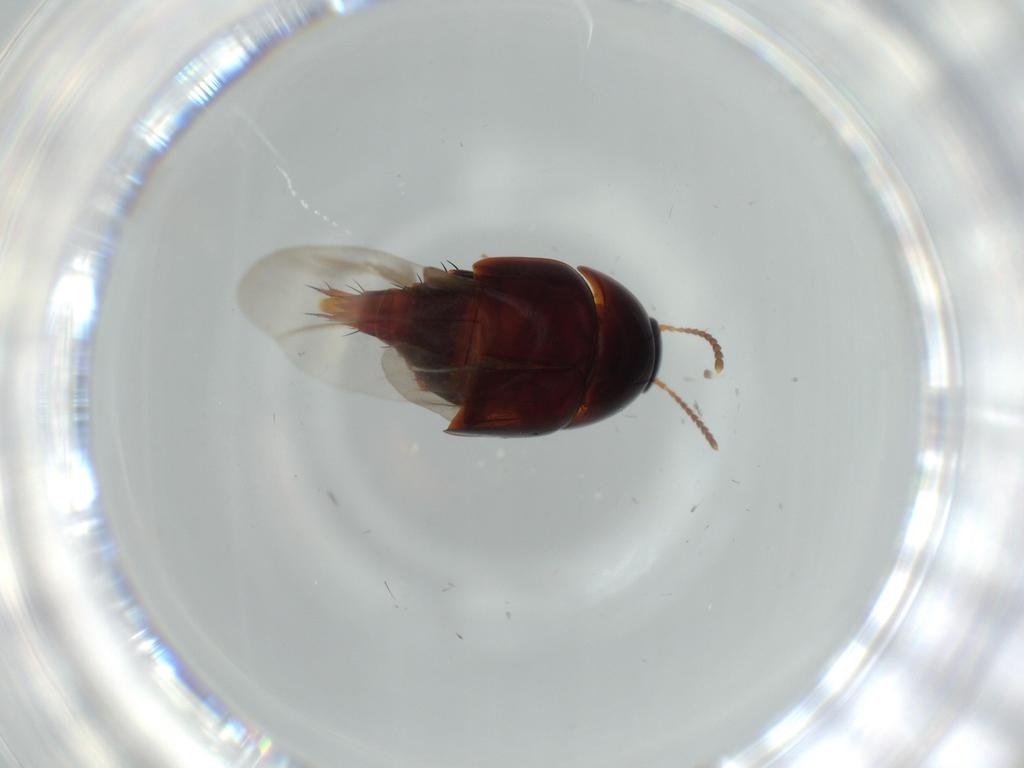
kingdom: Animalia
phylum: Arthropoda
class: Insecta
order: Coleoptera
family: Staphylinidae
